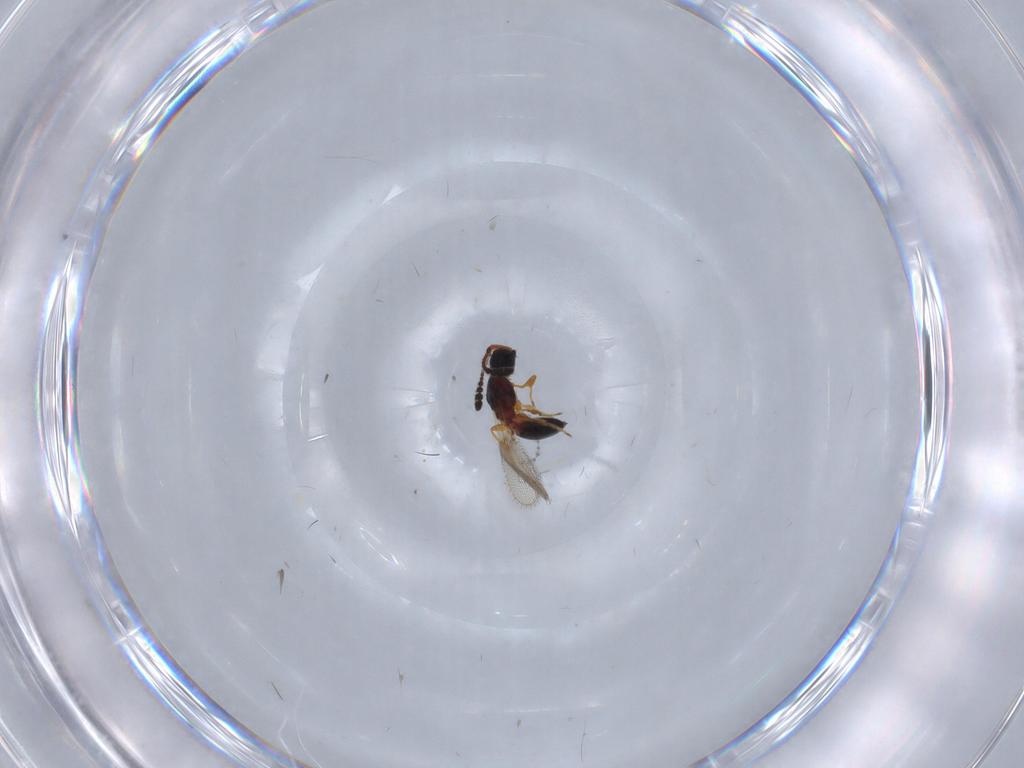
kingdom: Animalia
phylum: Arthropoda
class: Insecta
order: Hymenoptera
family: Diapriidae
